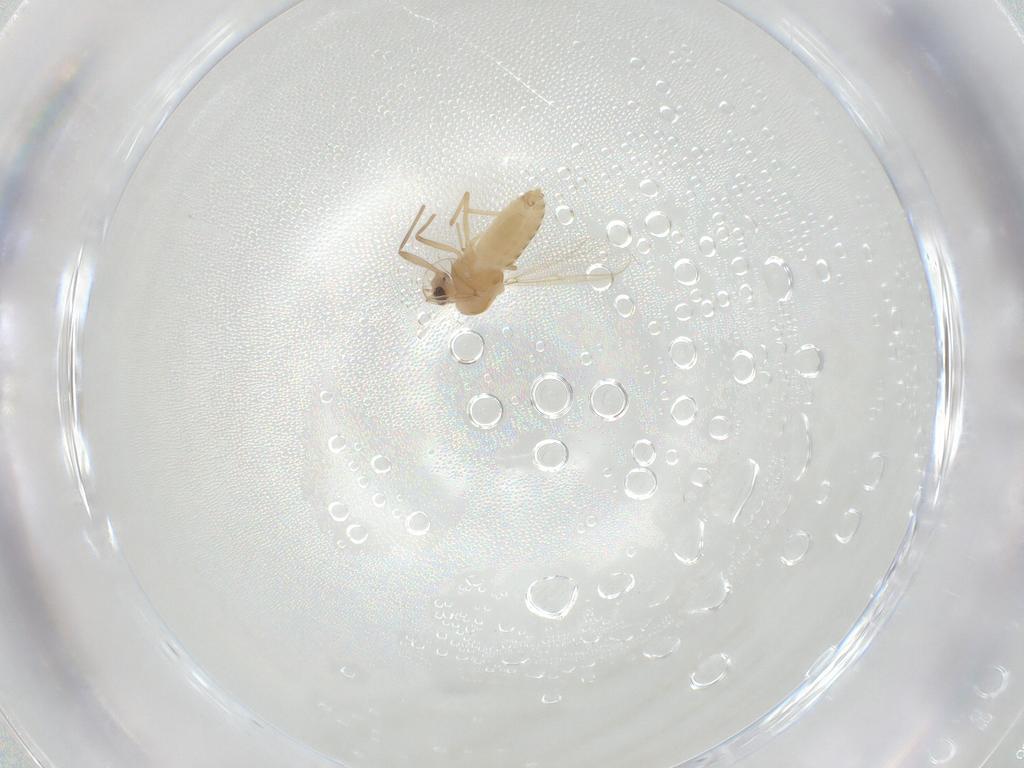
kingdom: Animalia
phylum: Arthropoda
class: Insecta
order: Diptera
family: Chironomidae
